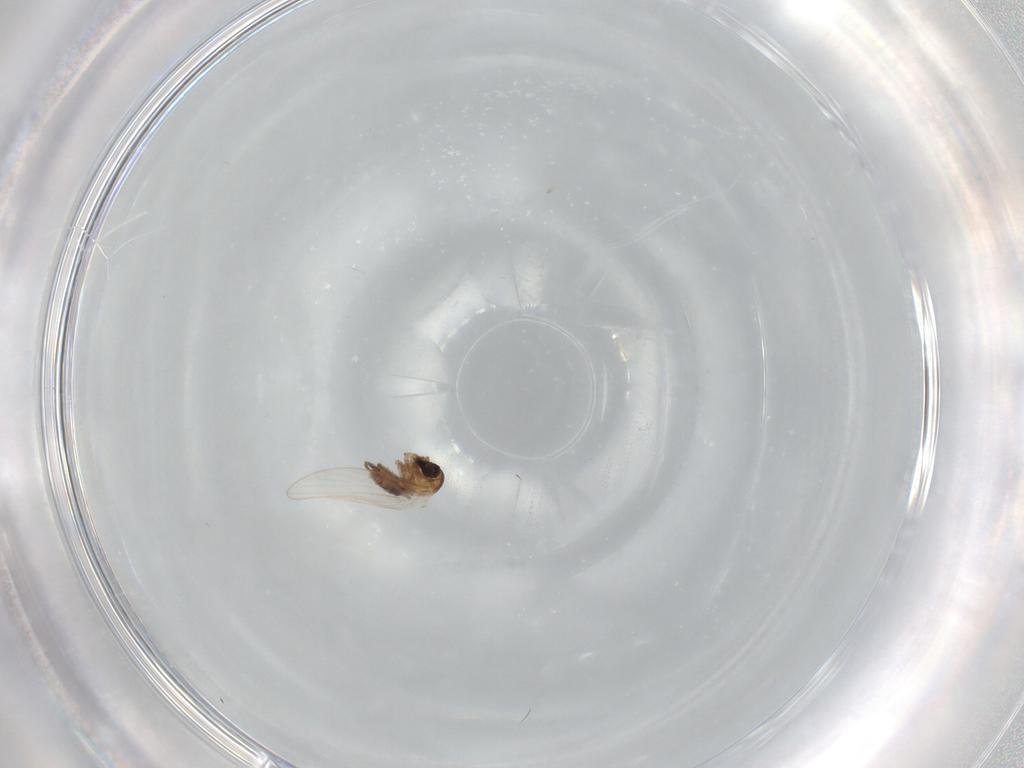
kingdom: Animalia
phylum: Arthropoda
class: Insecta
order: Diptera
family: Psychodidae
